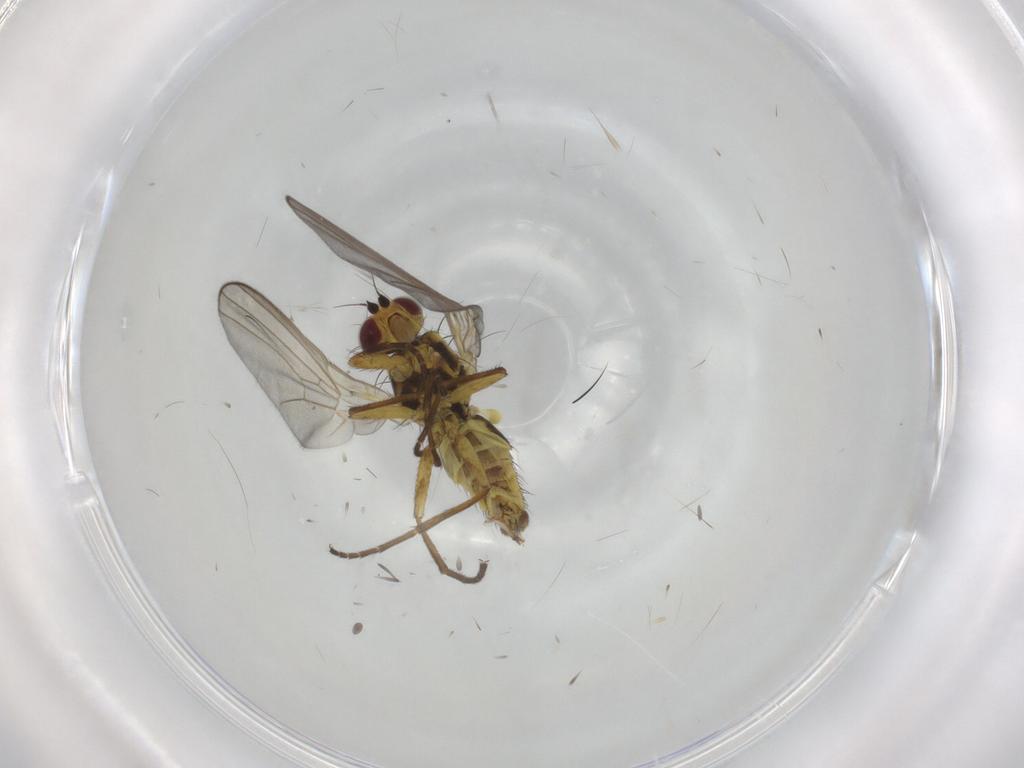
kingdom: Animalia
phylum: Arthropoda
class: Insecta
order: Diptera
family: Agromyzidae
